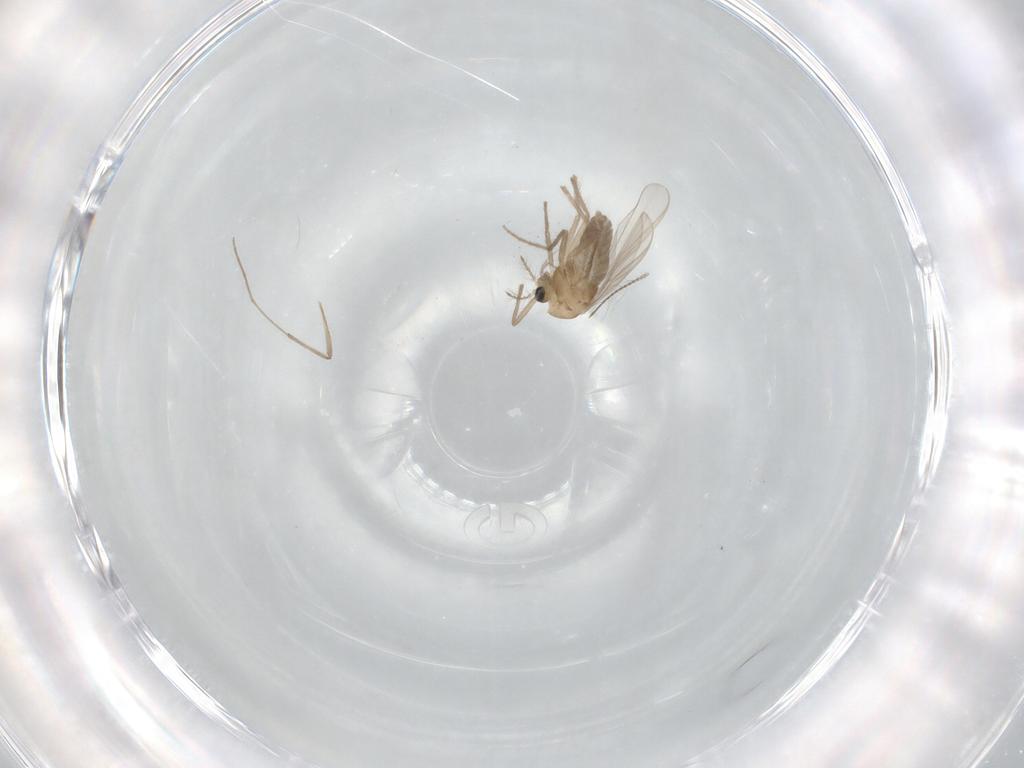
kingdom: Animalia
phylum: Arthropoda
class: Insecta
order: Diptera
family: Chironomidae
